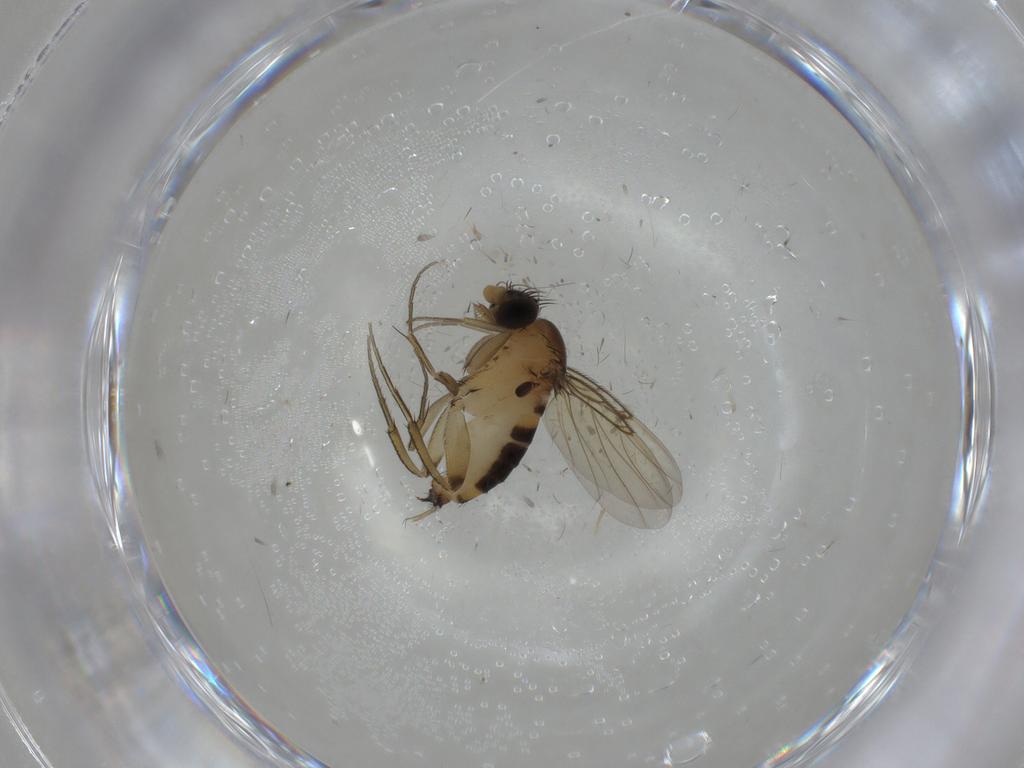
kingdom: Animalia
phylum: Arthropoda
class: Insecta
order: Diptera
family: Phoridae
